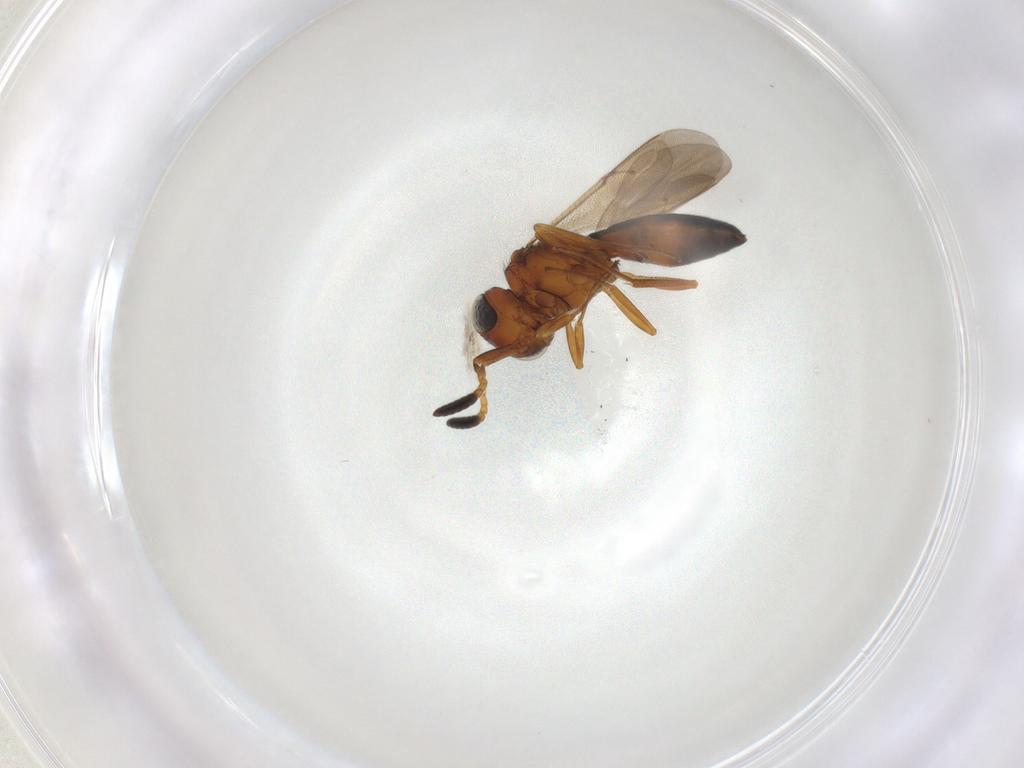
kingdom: Animalia
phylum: Arthropoda
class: Insecta
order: Hymenoptera
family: Scelionidae
